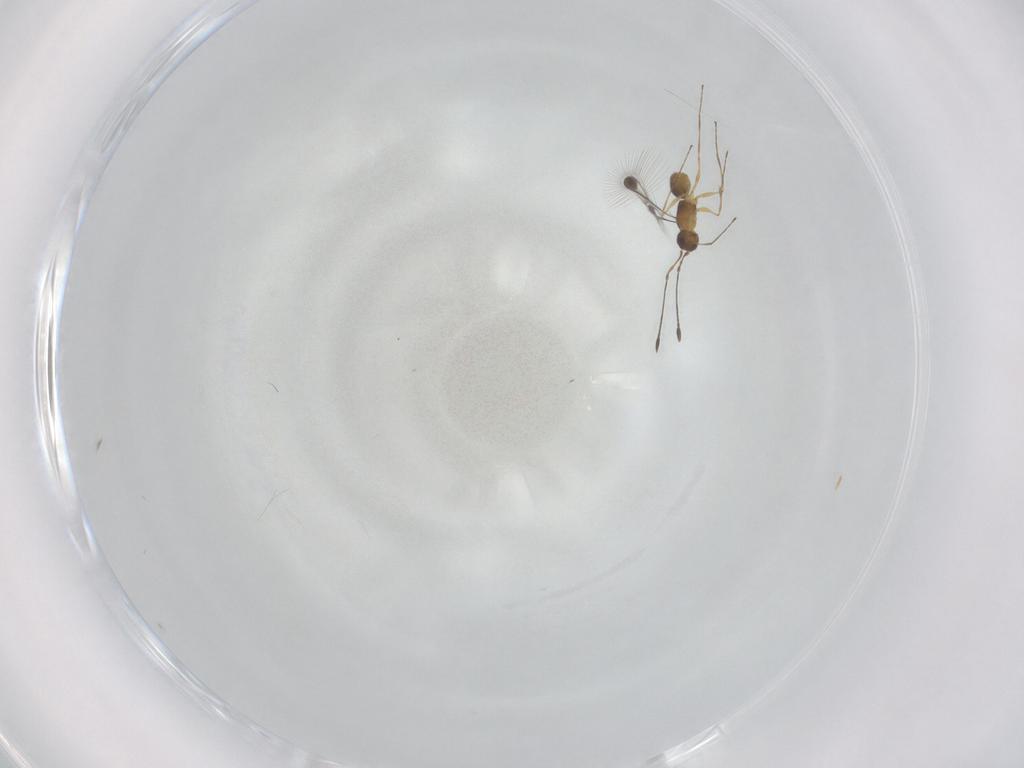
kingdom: Animalia
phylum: Arthropoda
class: Insecta
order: Hymenoptera
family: Mymaridae
